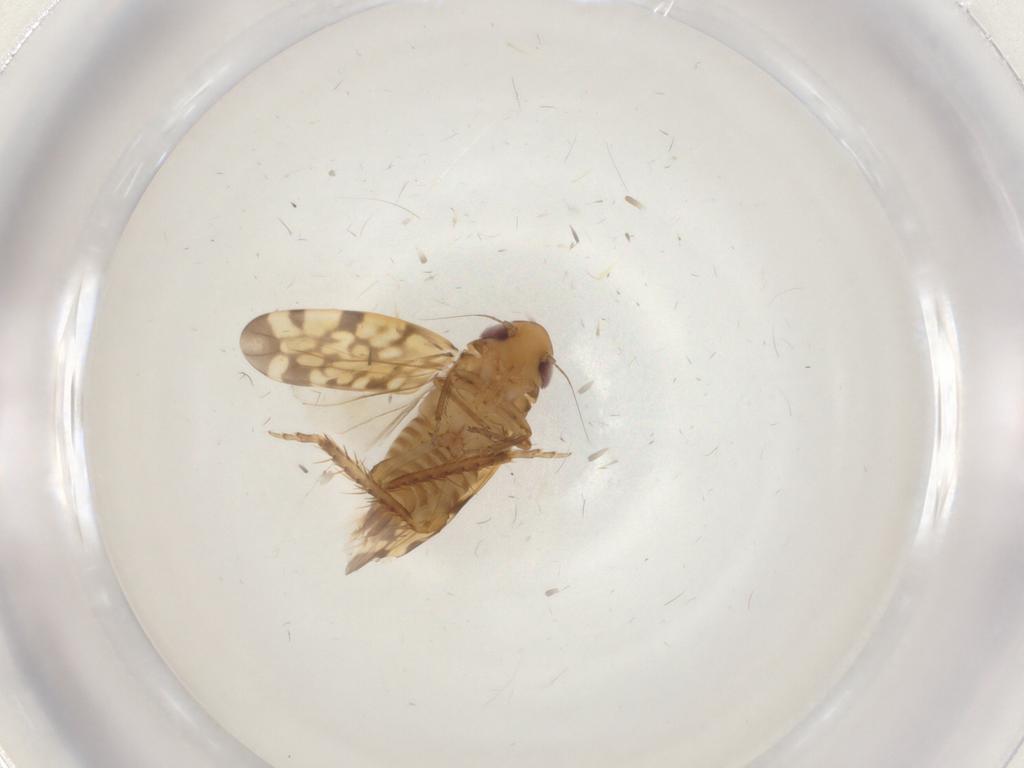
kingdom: Animalia
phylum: Arthropoda
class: Insecta
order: Hemiptera
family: Cicadellidae
